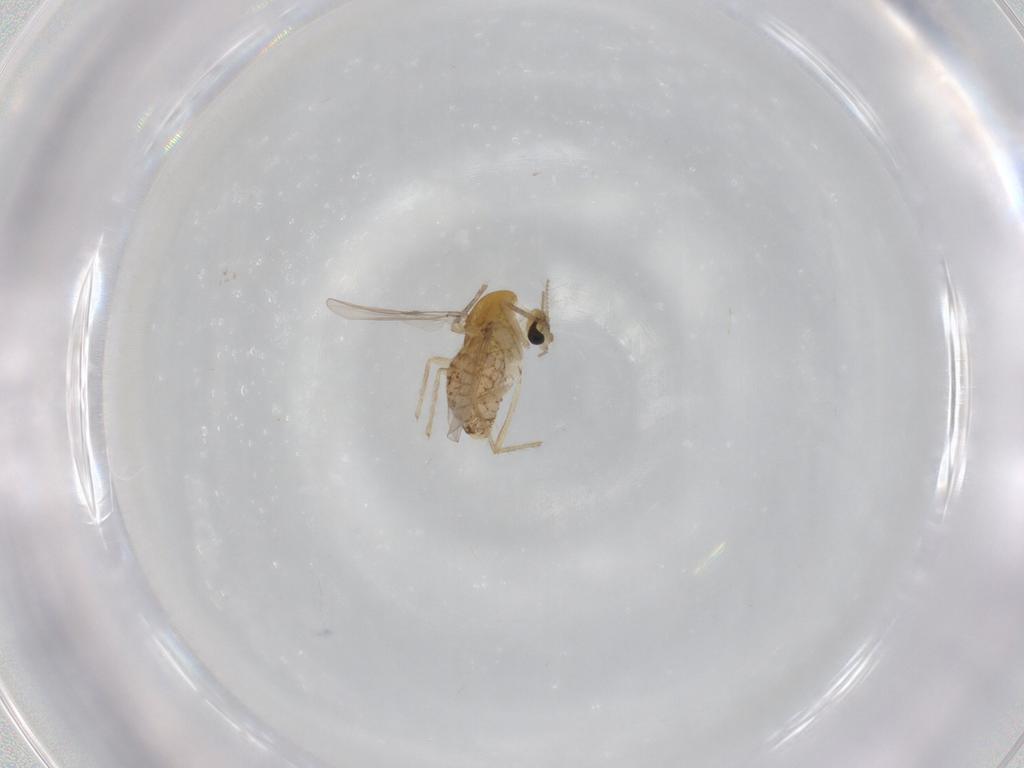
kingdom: Animalia
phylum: Arthropoda
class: Insecta
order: Diptera
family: Chironomidae
